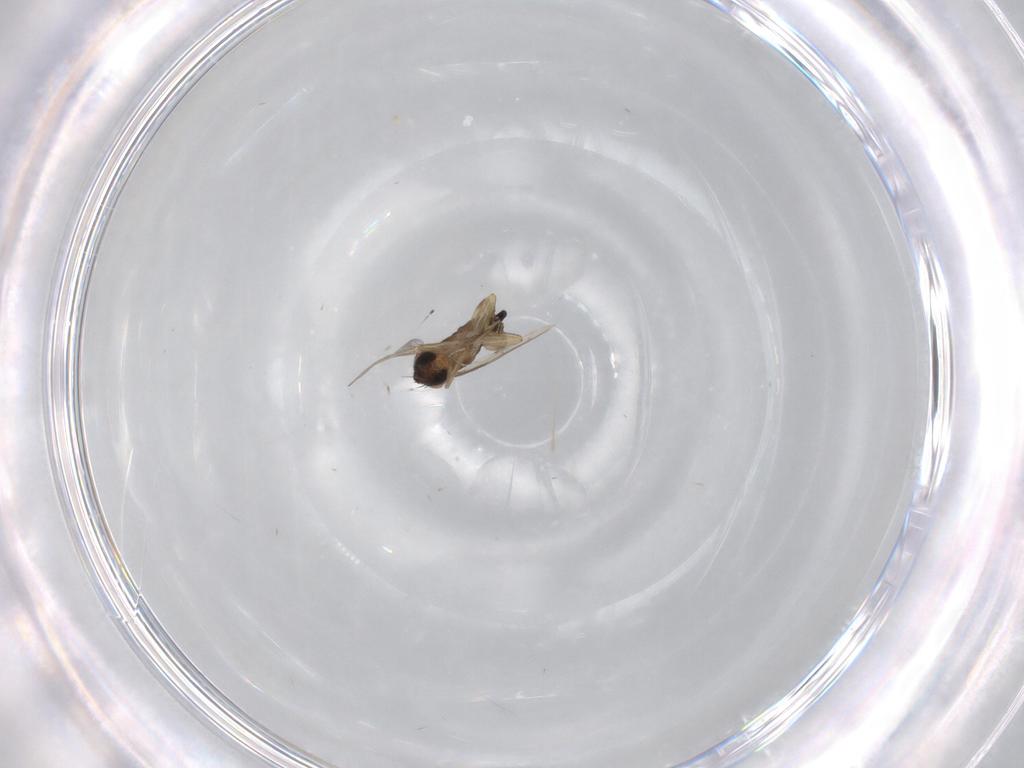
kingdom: Animalia
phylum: Arthropoda
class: Insecta
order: Diptera
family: Phoridae
